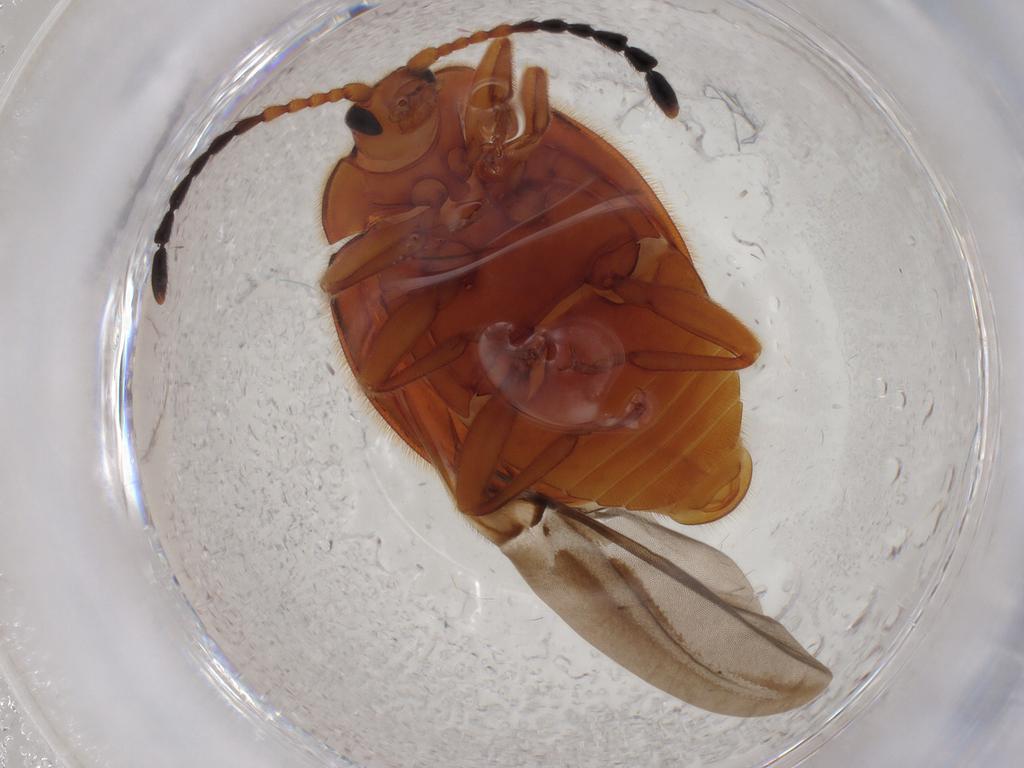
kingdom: Animalia
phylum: Arthropoda
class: Insecta
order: Coleoptera
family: Endomychidae
